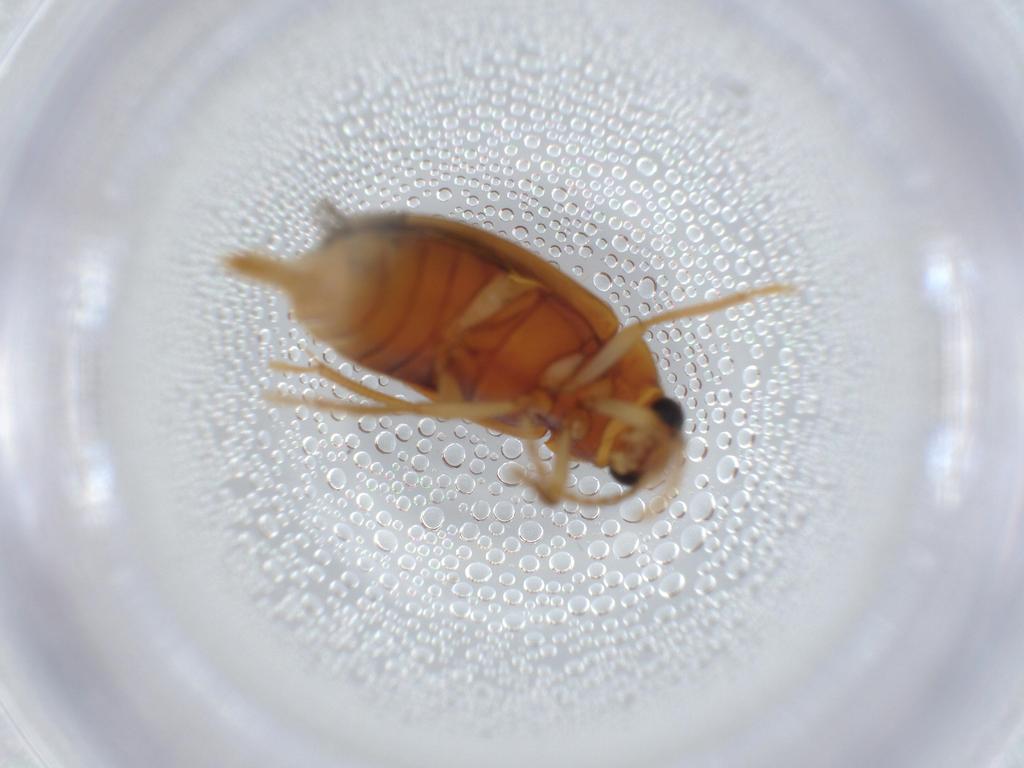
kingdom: Animalia
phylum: Arthropoda
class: Insecta
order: Coleoptera
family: Ptilodactylidae
